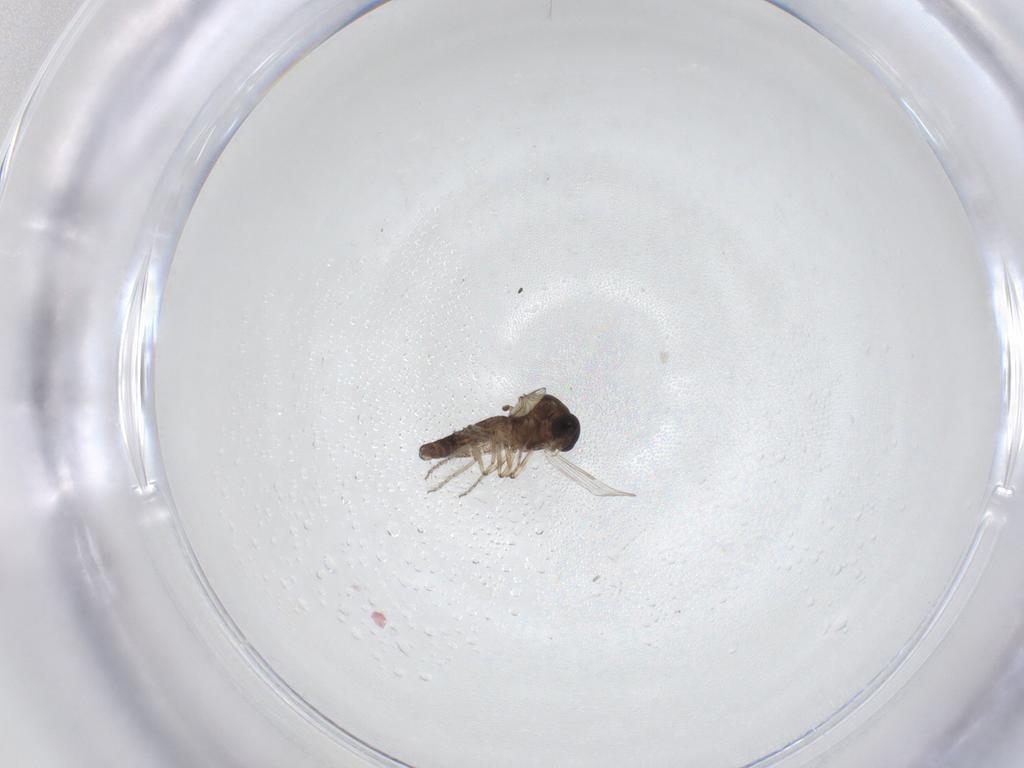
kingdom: Animalia
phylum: Arthropoda
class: Insecta
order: Diptera
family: Ceratopogonidae
